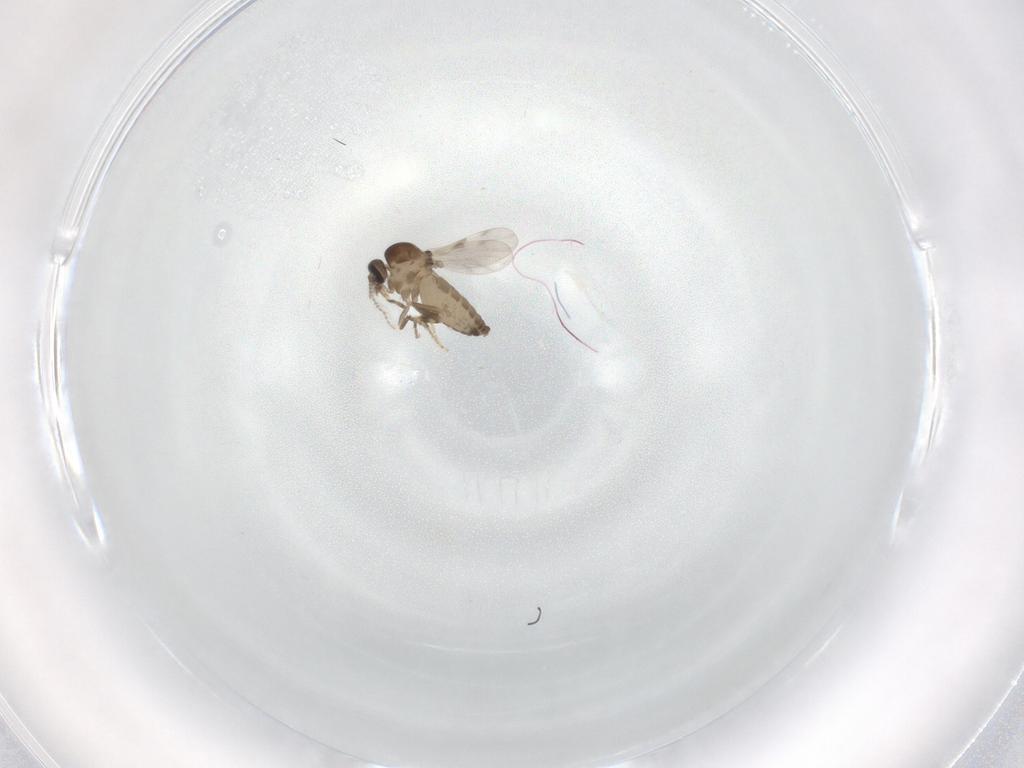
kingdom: Animalia
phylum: Arthropoda
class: Insecta
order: Diptera
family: Ceratopogonidae
